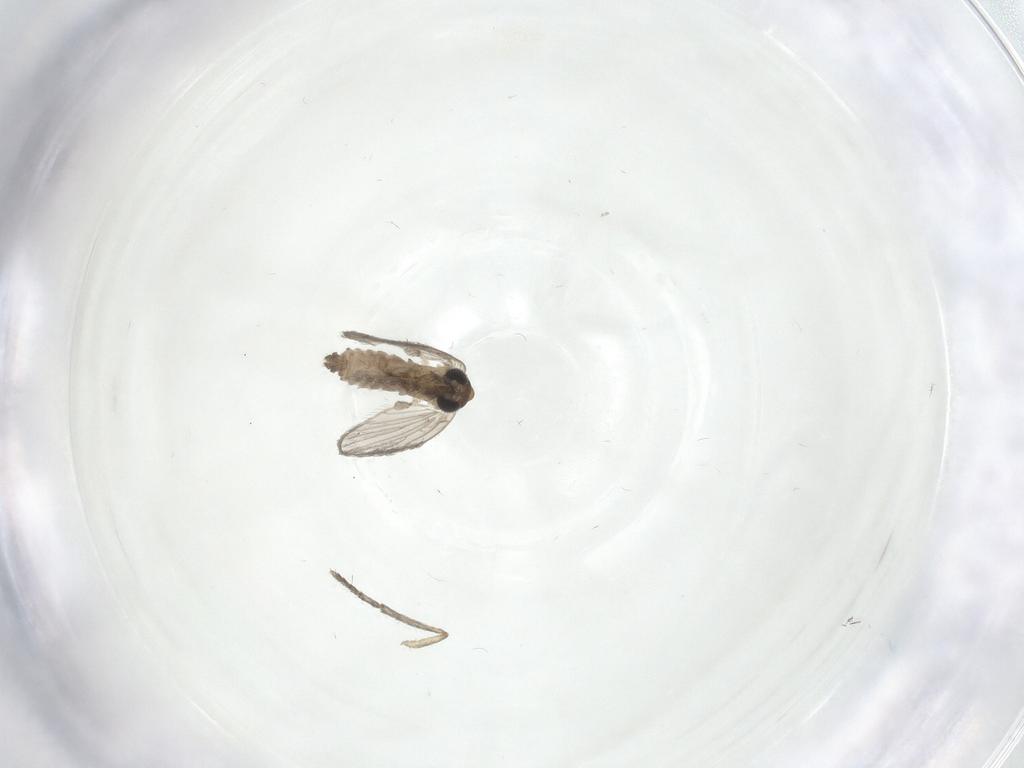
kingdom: Animalia
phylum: Arthropoda
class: Insecta
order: Diptera
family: Psychodidae
